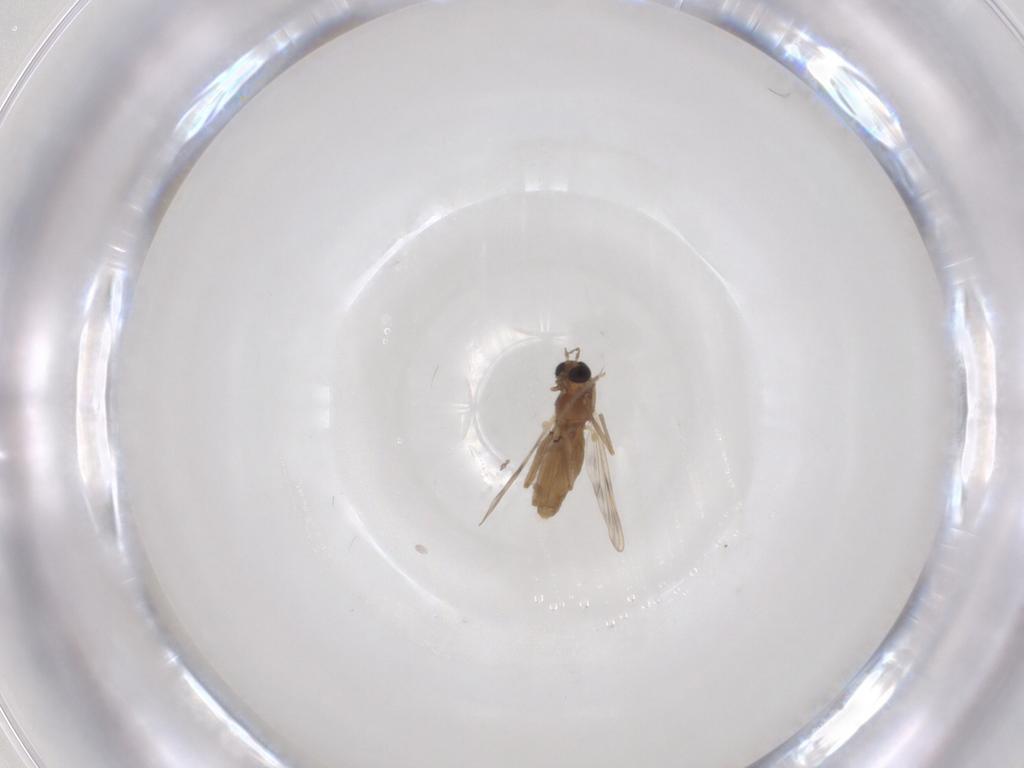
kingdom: Animalia
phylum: Arthropoda
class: Insecta
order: Diptera
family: Chironomidae
